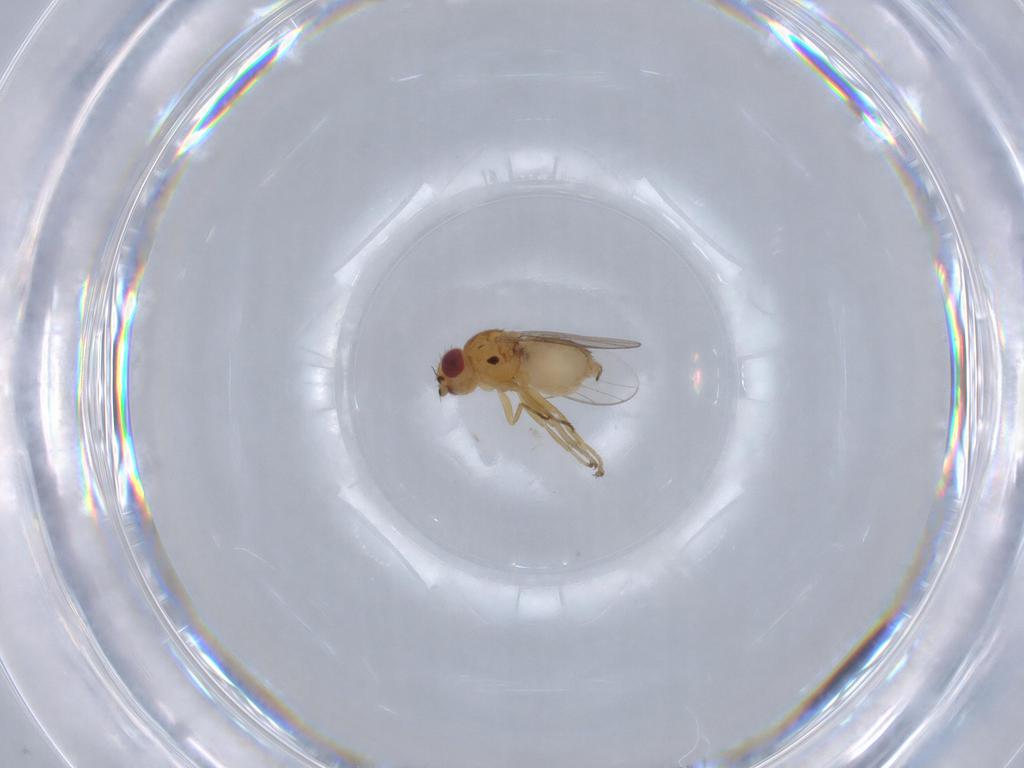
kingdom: Animalia
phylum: Arthropoda
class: Insecta
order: Diptera
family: Chloropidae
